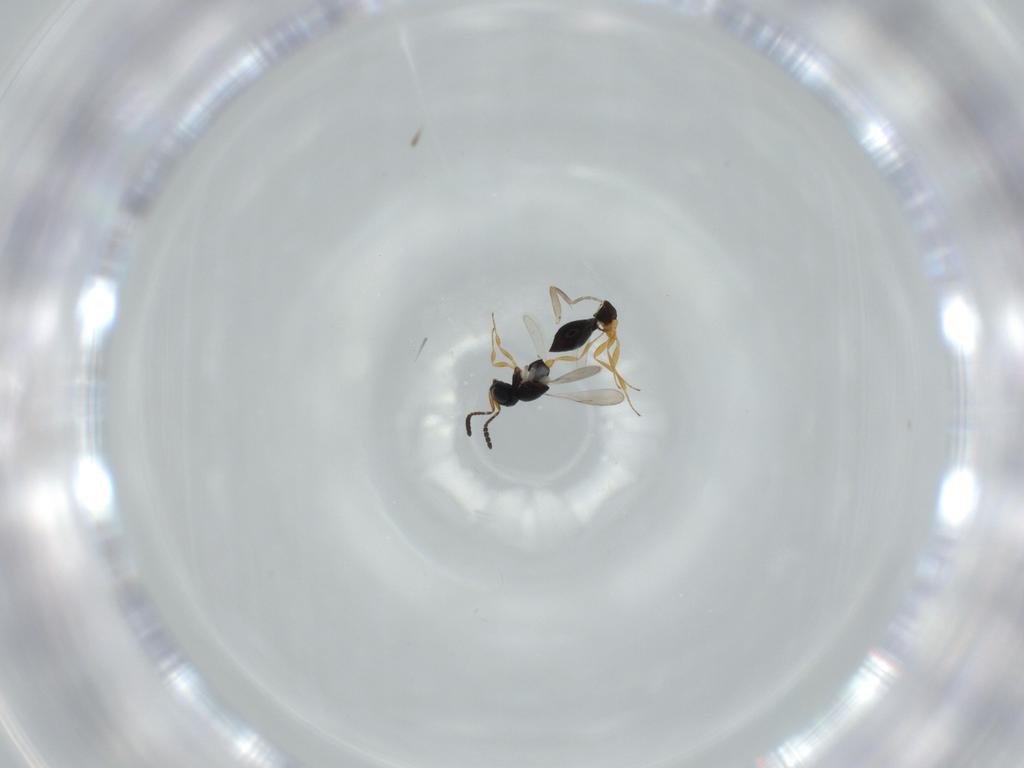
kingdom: Animalia
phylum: Arthropoda
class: Insecta
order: Hymenoptera
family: Scelionidae
